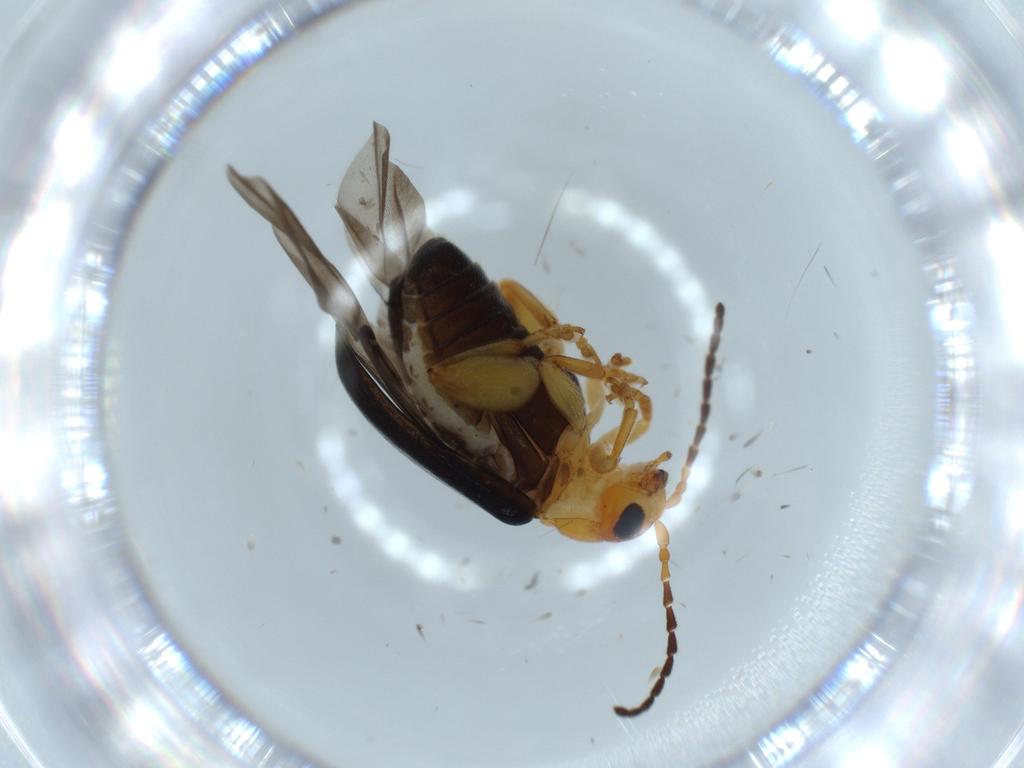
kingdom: Animalia
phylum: Arthropoda
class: Insecta
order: Coleoptera
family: Chrysomelidae
